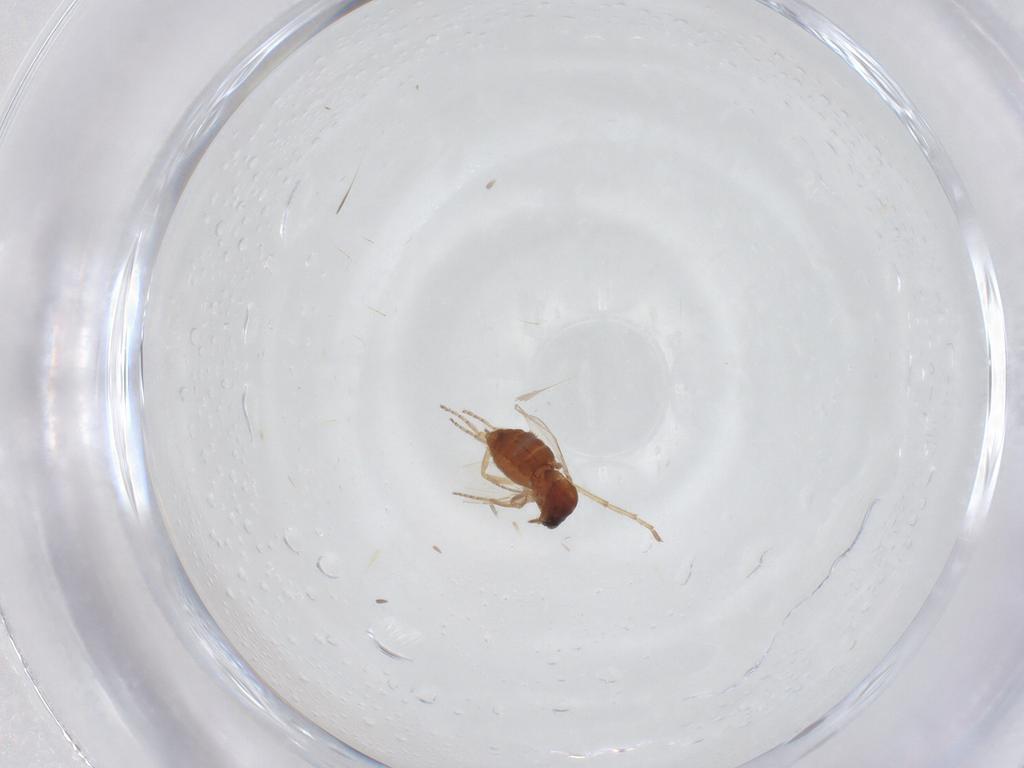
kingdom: Animalia
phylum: Arthropoda
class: Insecta
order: Diptera
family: Ceratopogonidae
